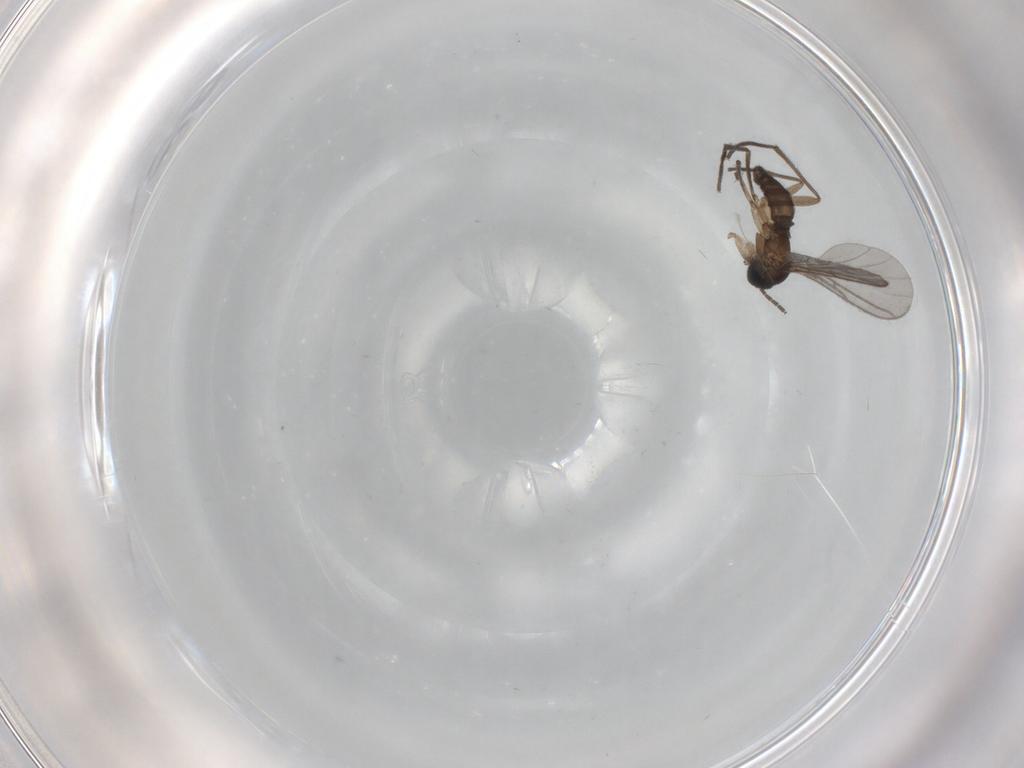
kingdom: Animalia
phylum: Arthropoda
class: Insecta
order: Diptera
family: Sciaridae
